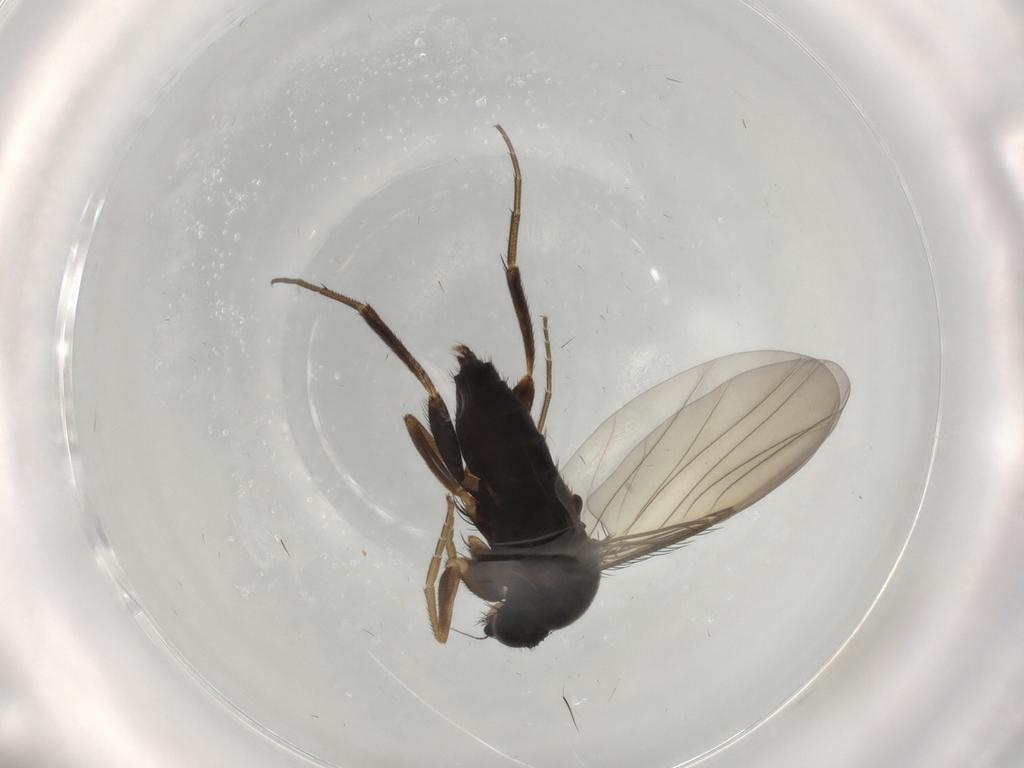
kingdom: Animalia
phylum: Arthropoda
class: Insecta
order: Diptera
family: Phoridae
